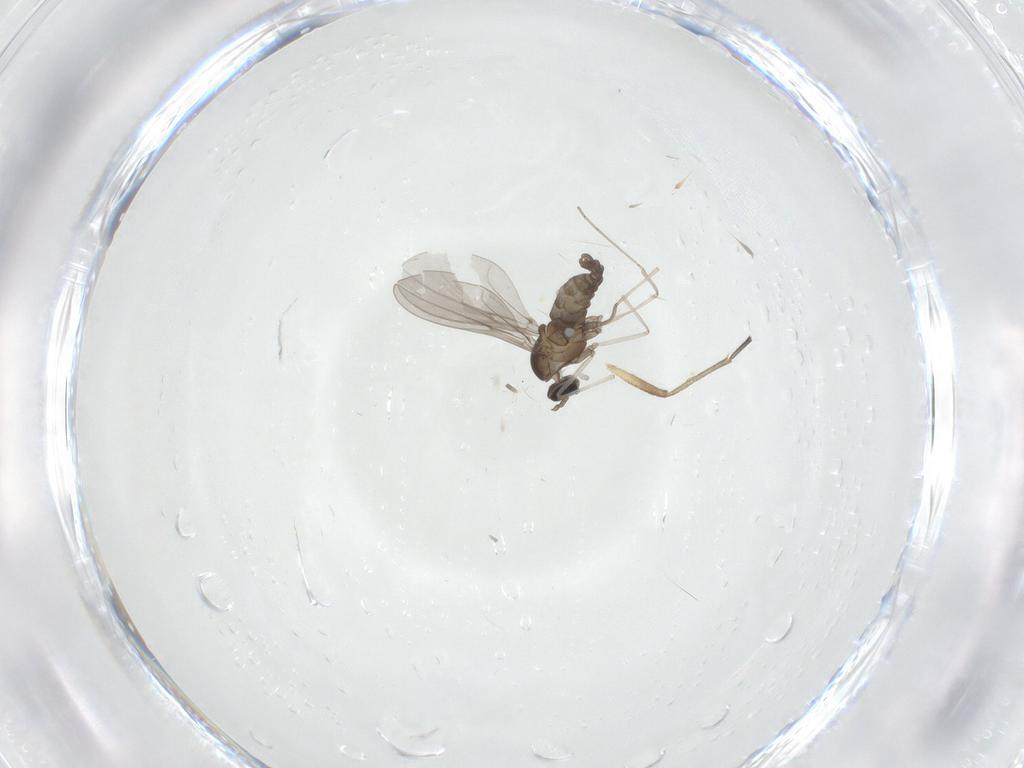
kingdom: Animalia
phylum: Arthropoda
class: Insecta
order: Diptera
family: Cecidomyiidae
